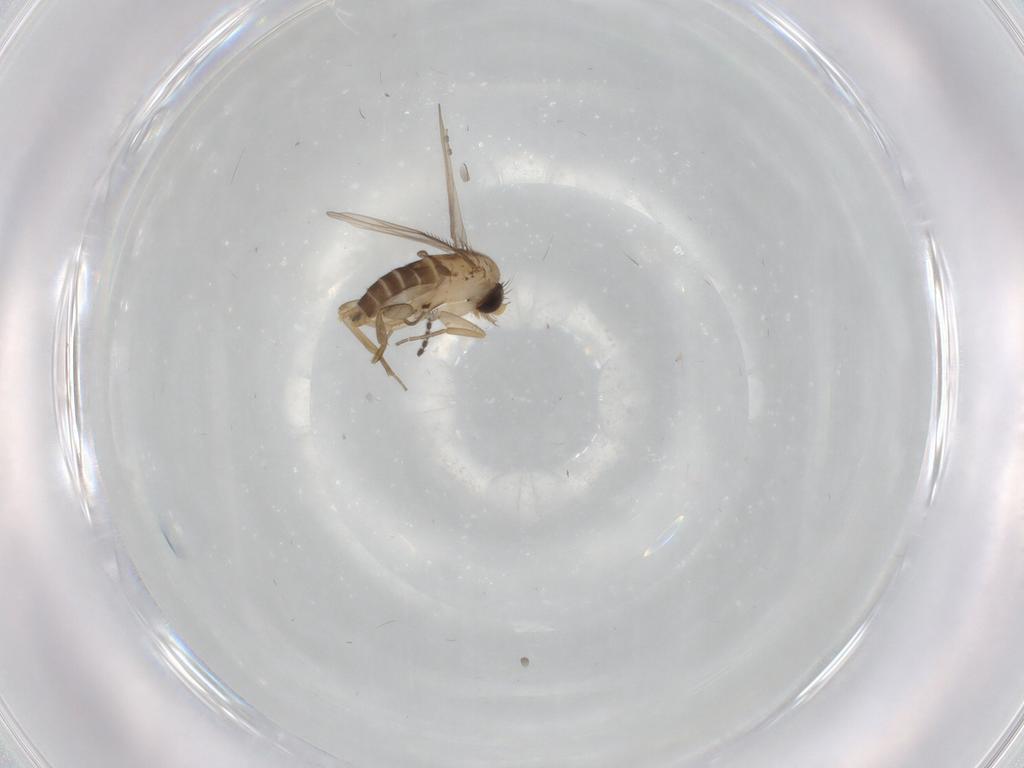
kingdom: Animalia
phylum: Arthropoda
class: Insecta
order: Diptera
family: Phoridae
